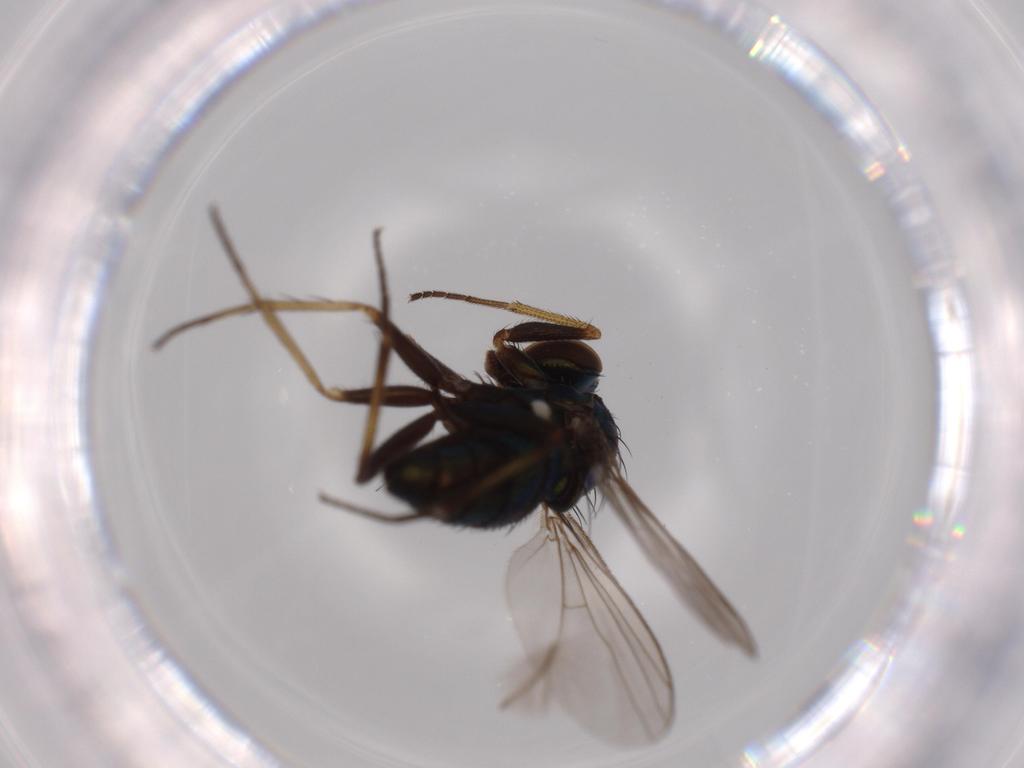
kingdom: Animalia
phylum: Arthropoda
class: Insecta
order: Diptera
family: Dolichopodidae
